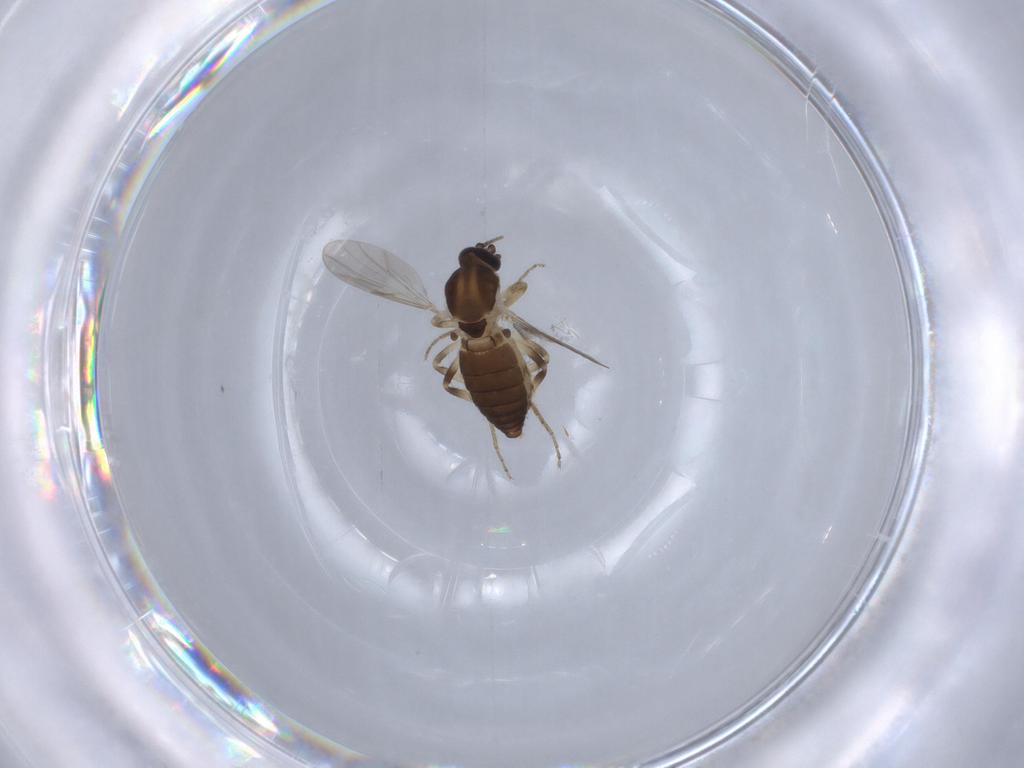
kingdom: Animalia
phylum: Arthropoda
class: Insecta
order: Diptera
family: Ceratopogonidae
